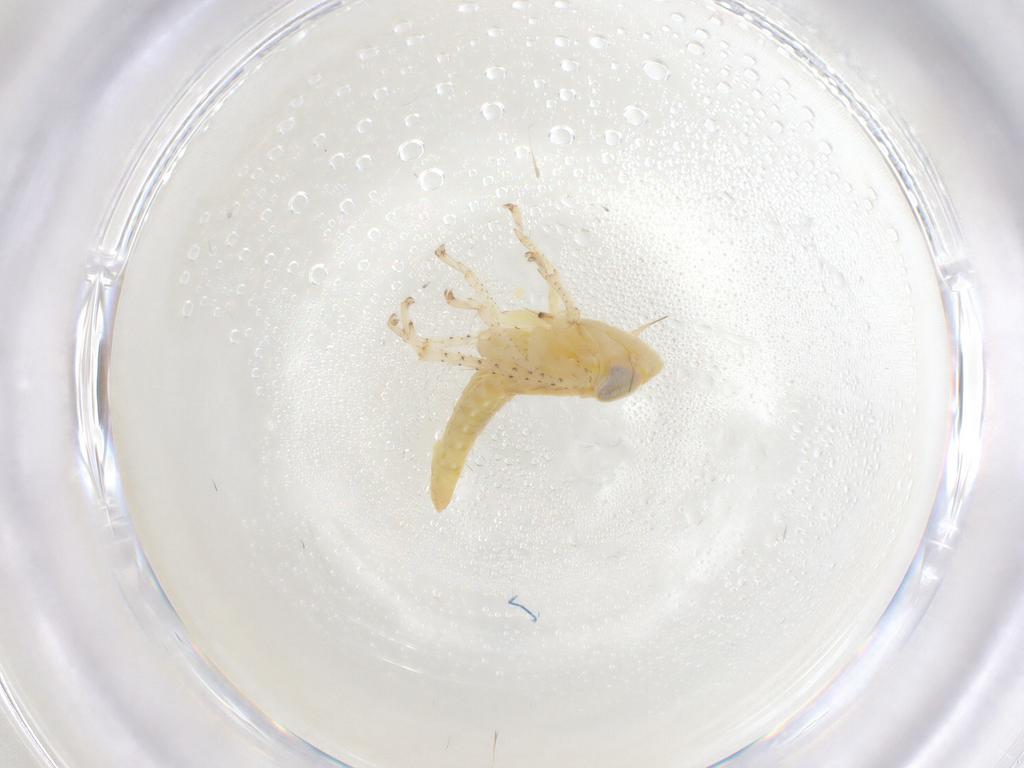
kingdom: Animalia
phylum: Arthropoda
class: Insecta
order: Hemiptera
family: Cicadellidae
